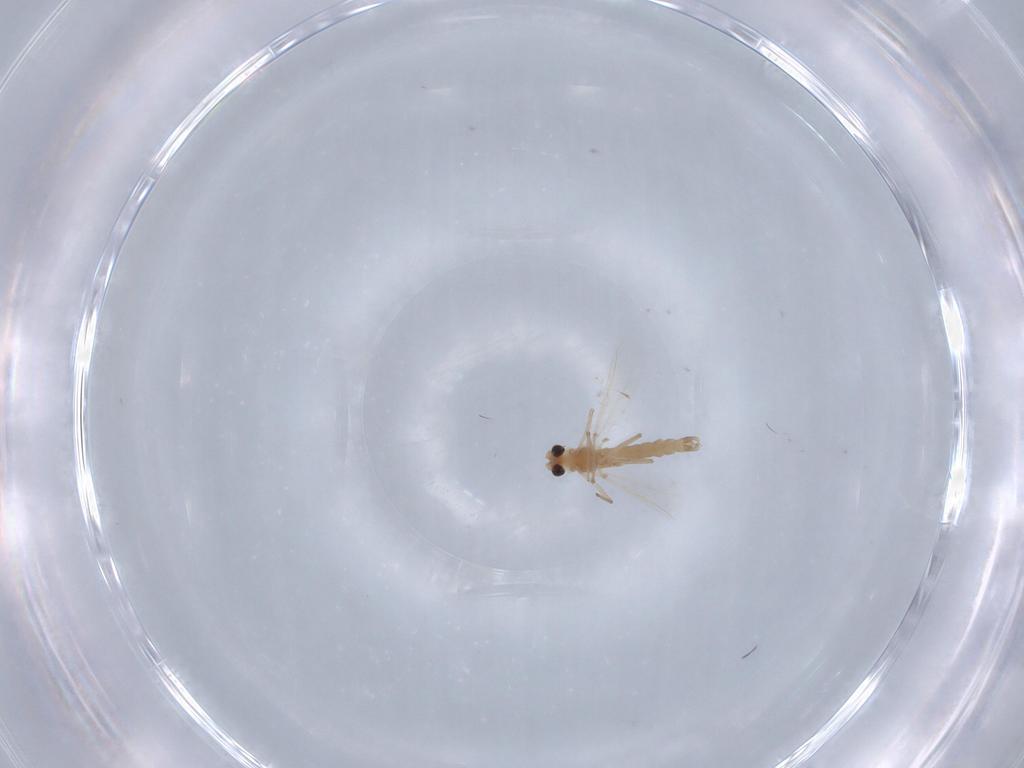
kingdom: Animalia
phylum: Arthropoda
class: Insecta
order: Diptera
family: Chironomidae
